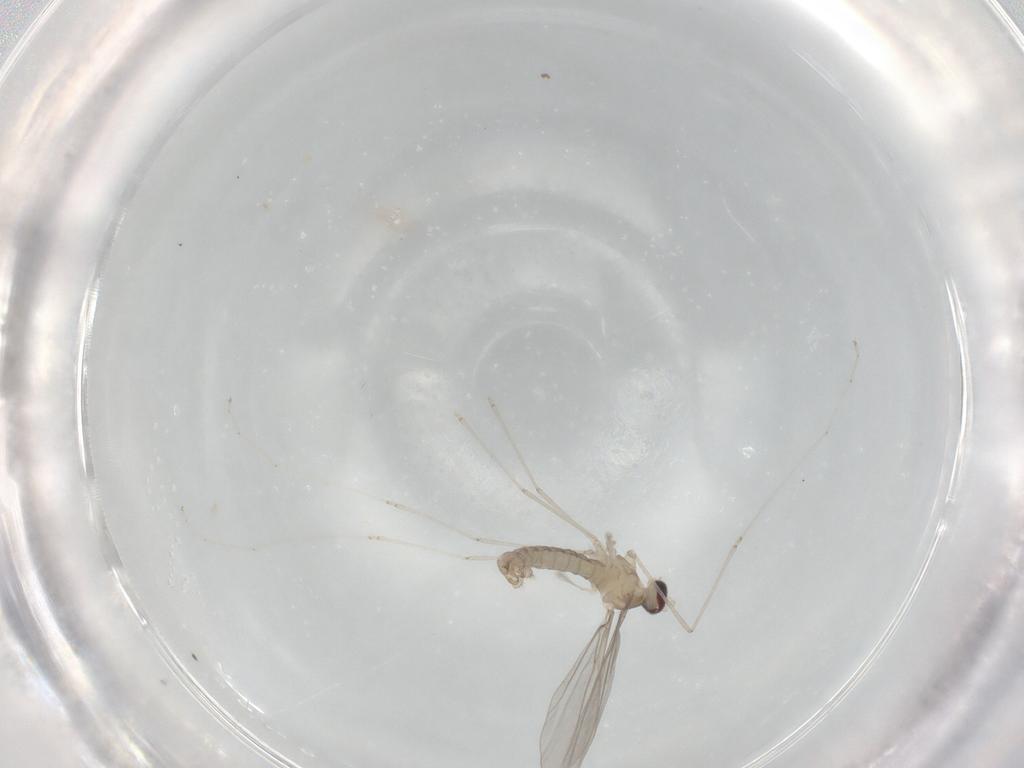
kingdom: Animalia
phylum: Arthropoda
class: Insecta
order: Diptera
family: Cecidomyiidae
